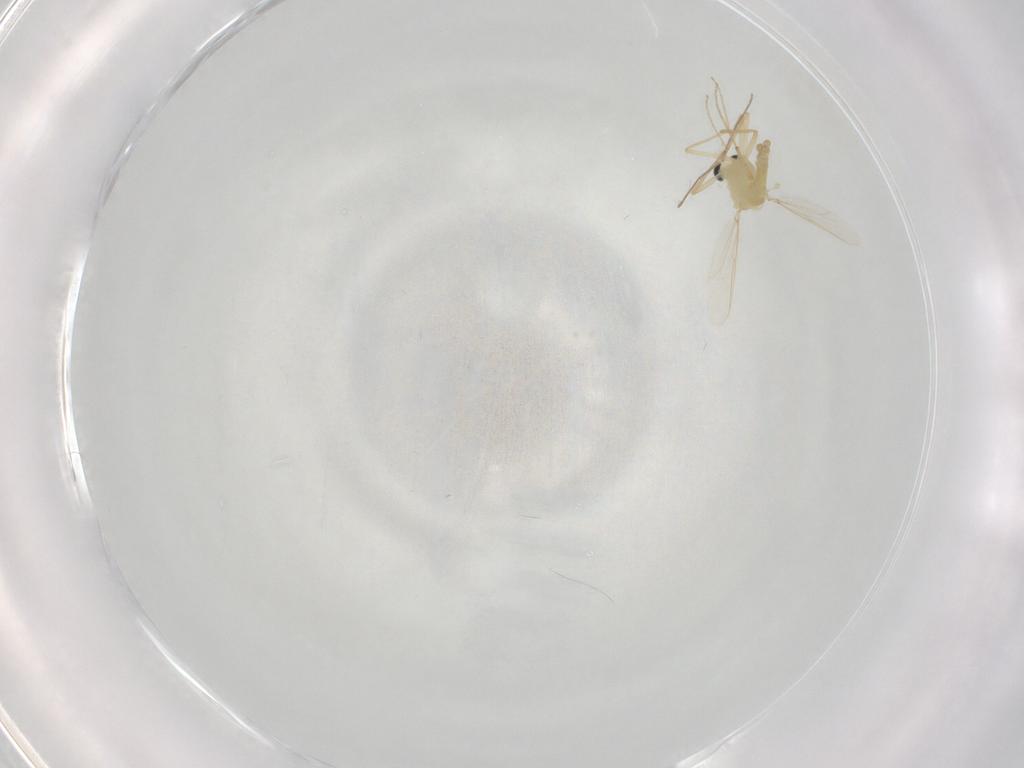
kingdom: Animalia
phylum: Arthropoda
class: Insecta
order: Diptera
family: Chironomidae
